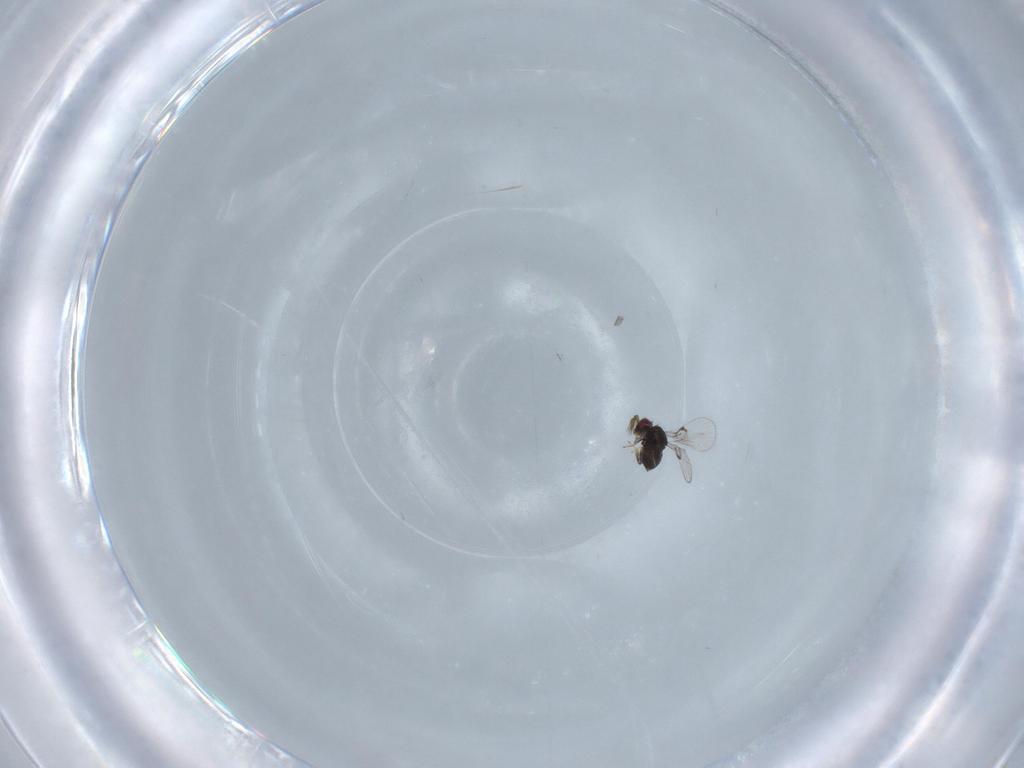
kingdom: Animalia
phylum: Arthropoda
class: Insecta
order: Hymenoptera
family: Trichogrammatidae
